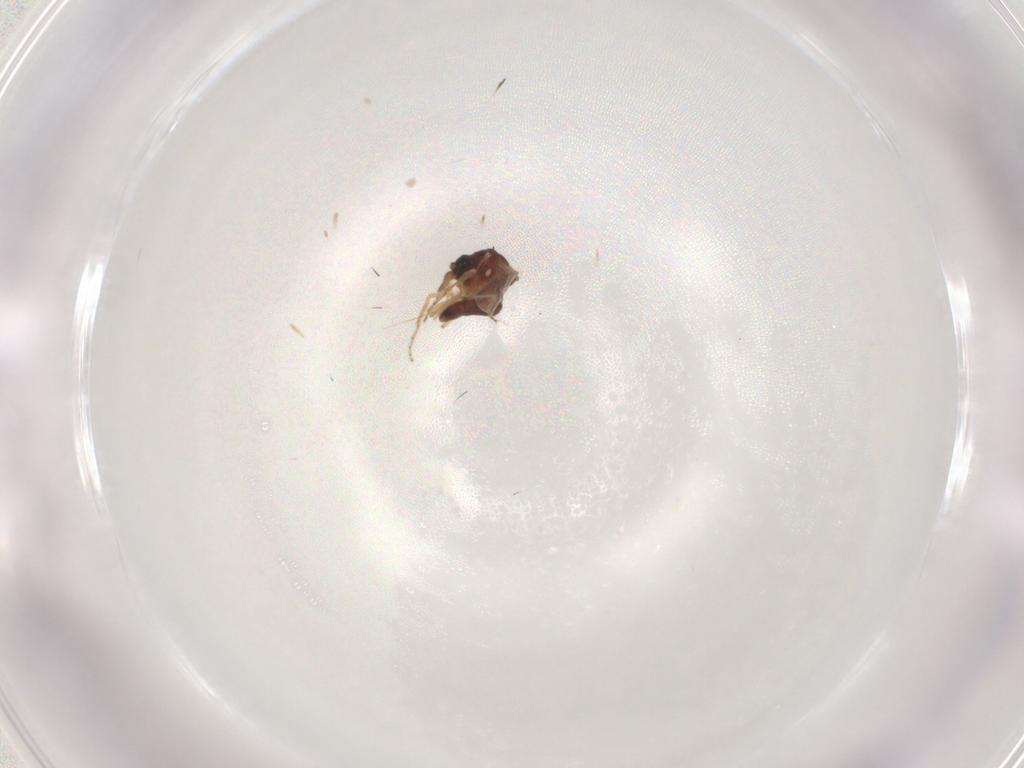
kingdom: Animalia
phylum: Arthropoda
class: Insecta
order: Diptera
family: Ceratopogonidae
